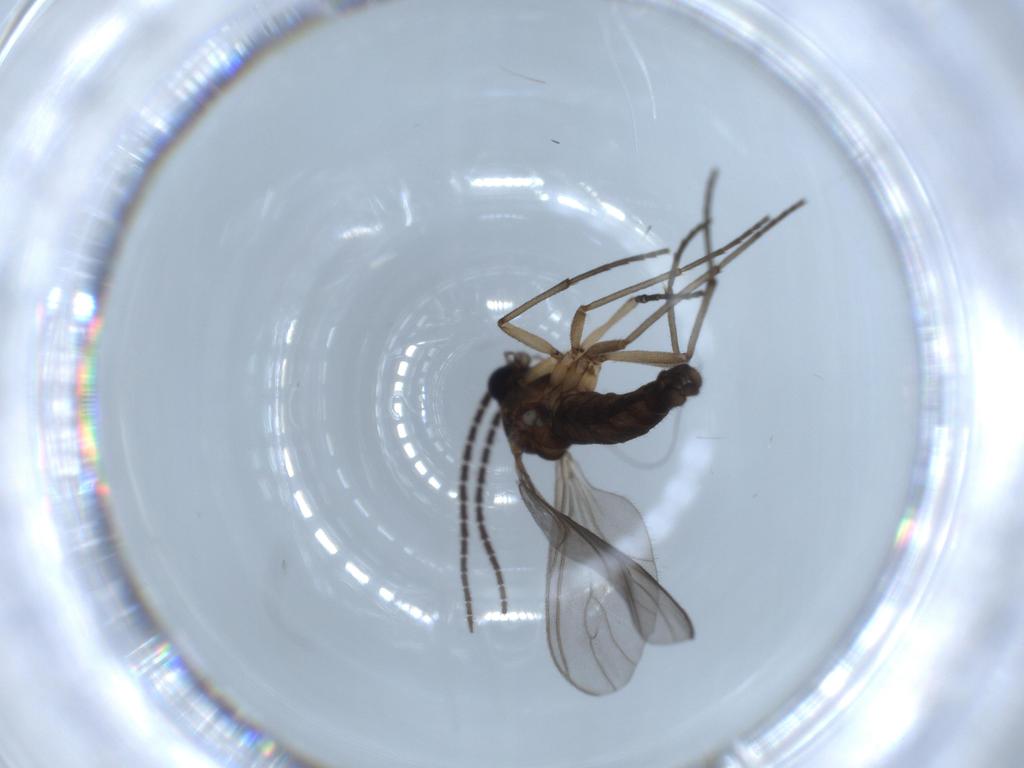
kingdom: Animalia
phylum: Arthropoda
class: Insecta
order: Diptera
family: Sciaridae
